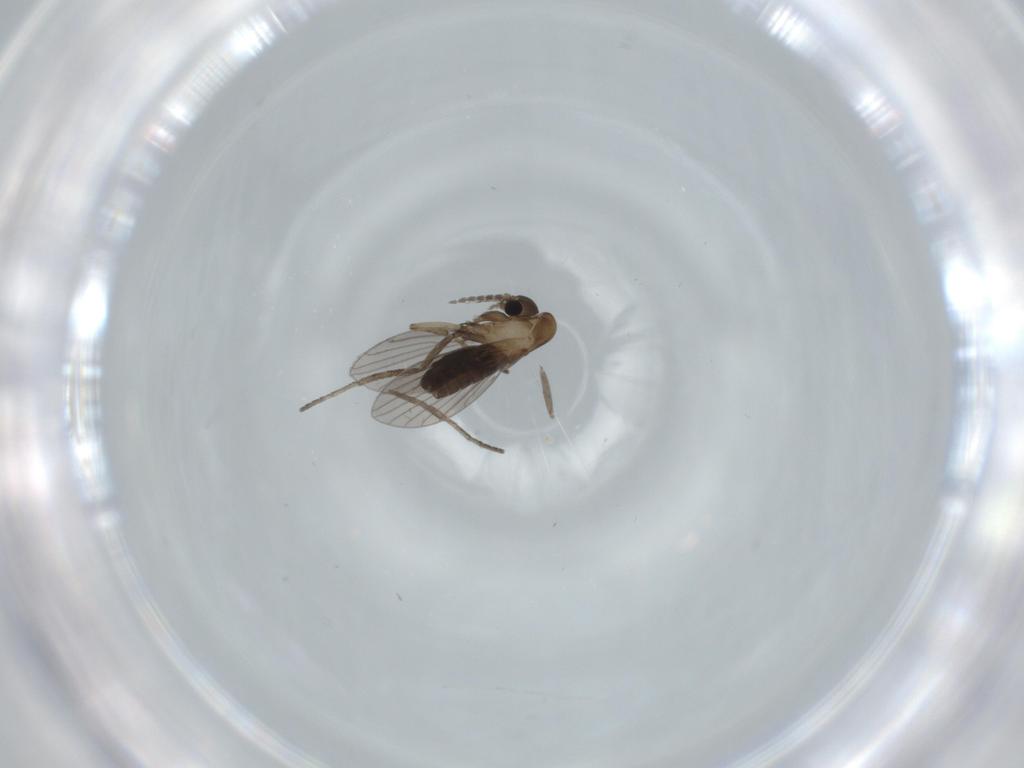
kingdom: Animalia
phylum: Arthropoda
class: Insecta
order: Diptera
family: Psychodidae
